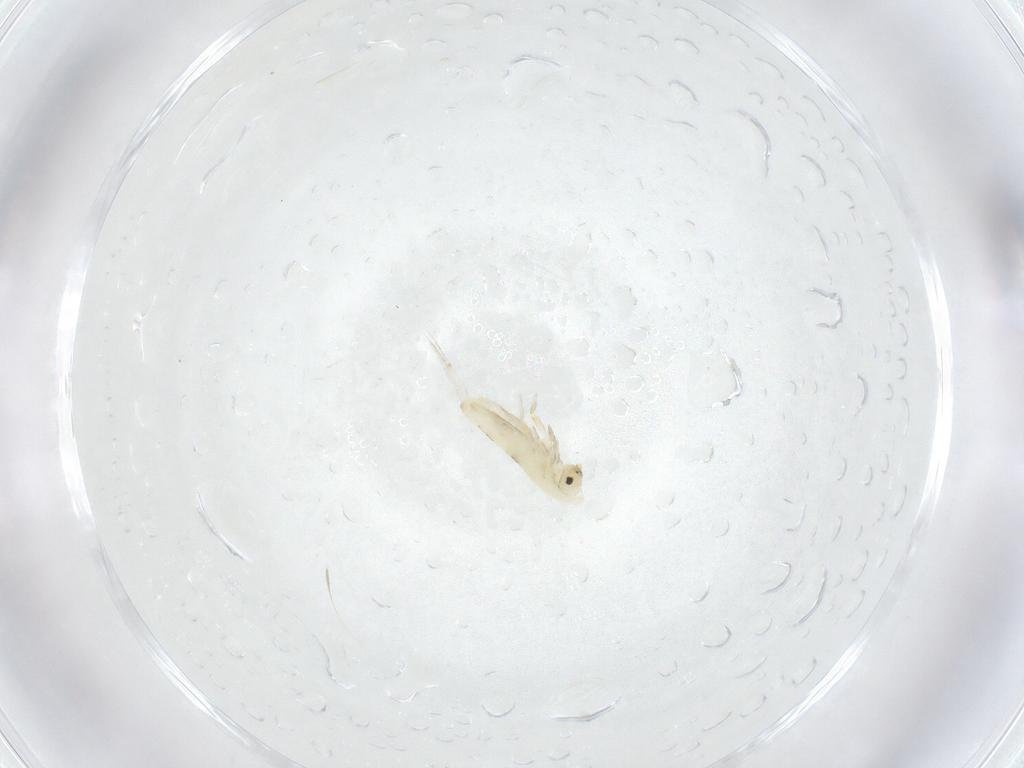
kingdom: Animalia
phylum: Arthropoda
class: Collembola
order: Entomobryomorpha
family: Entomobryidae
